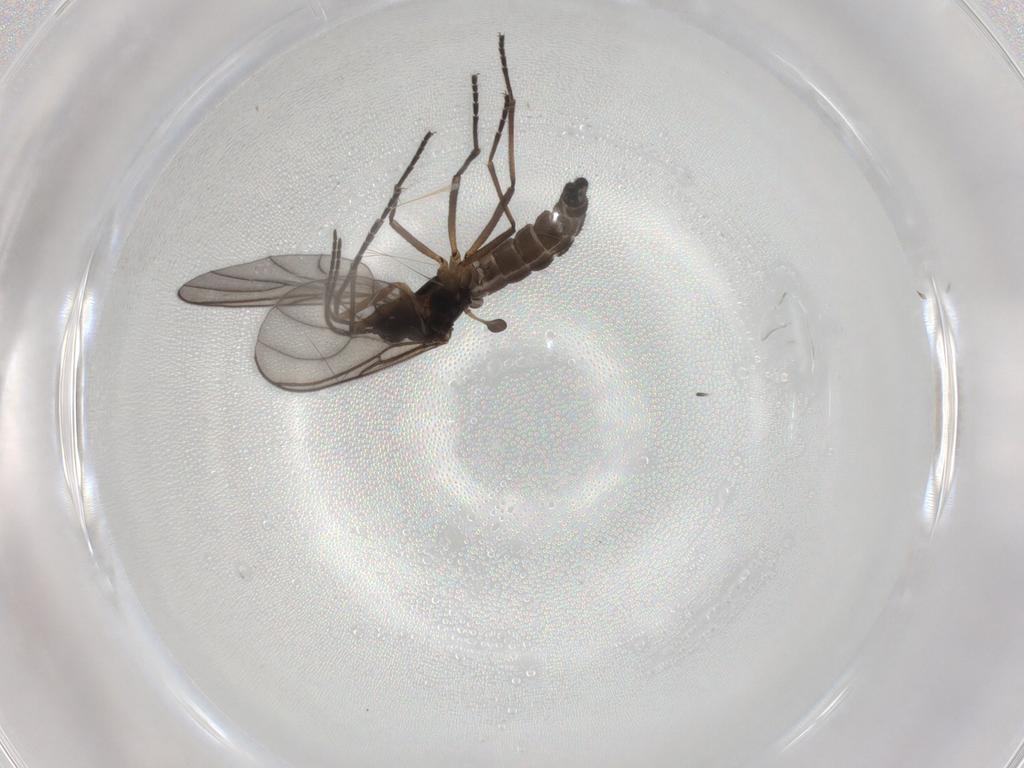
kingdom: Animalia
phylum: Arthropoda
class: Insecta
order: Diptera
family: Sciaridae
